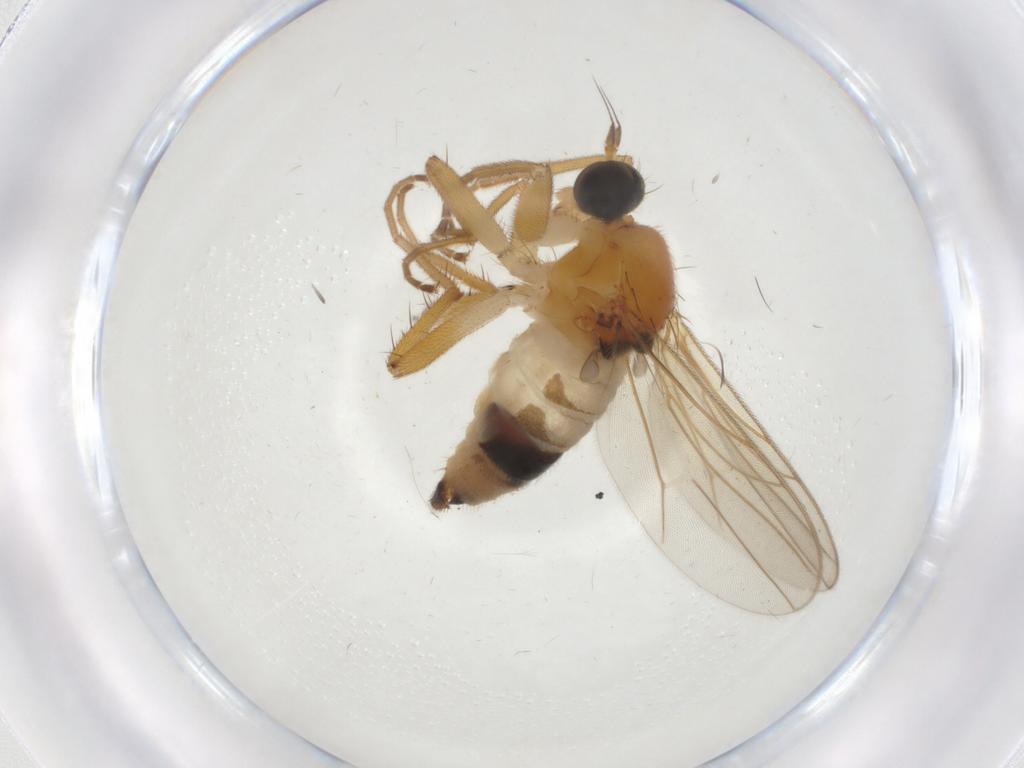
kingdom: Animalia
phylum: Arthropoda
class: Insecta
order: Diptera
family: Hybotidae
